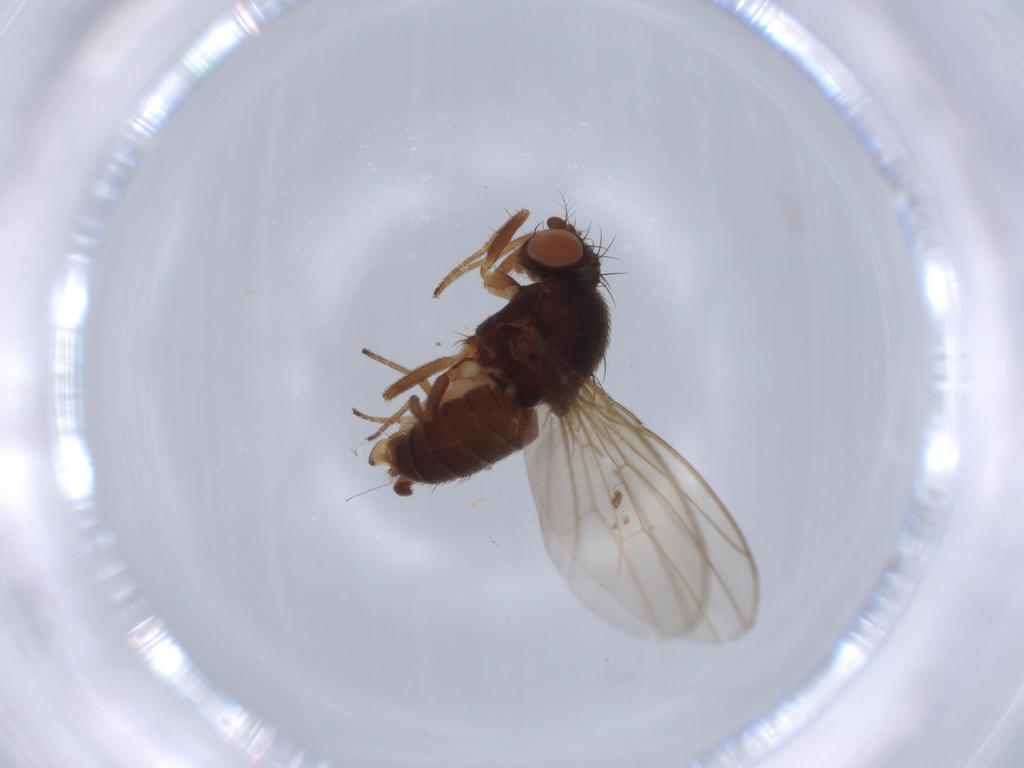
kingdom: Animalia
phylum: Arthropoda
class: Insecta
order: Diptera
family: Drosophilidae
